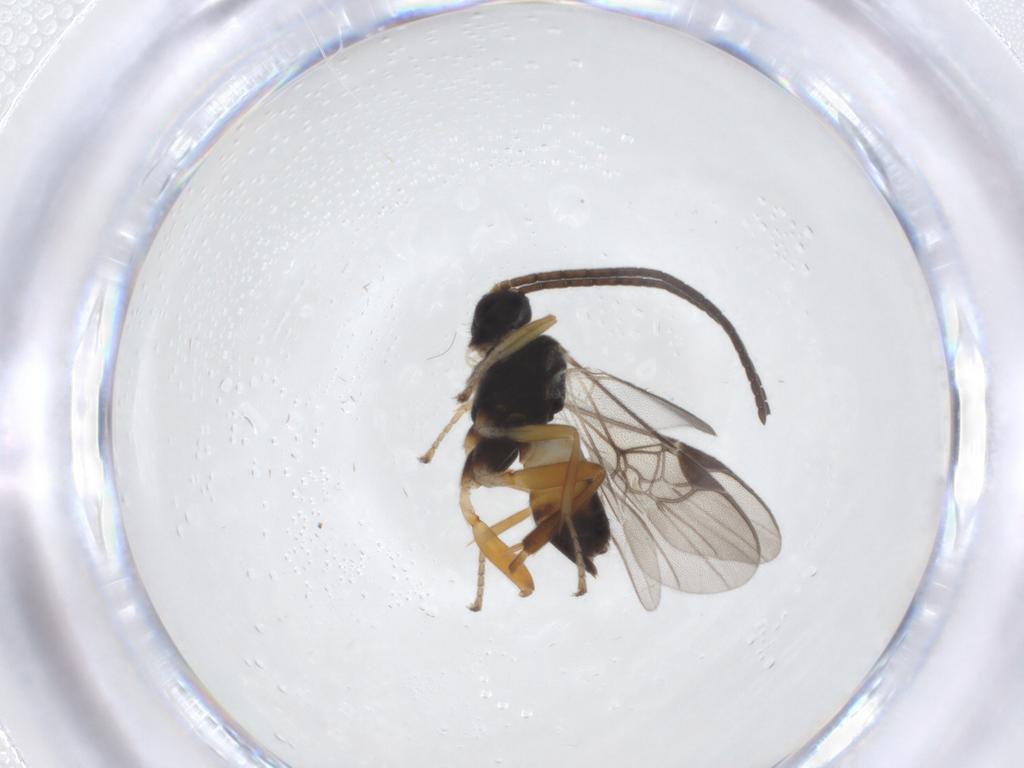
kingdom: Animalia
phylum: Arthropoda
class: Insecta
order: Hymenoptera
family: Braconidae
